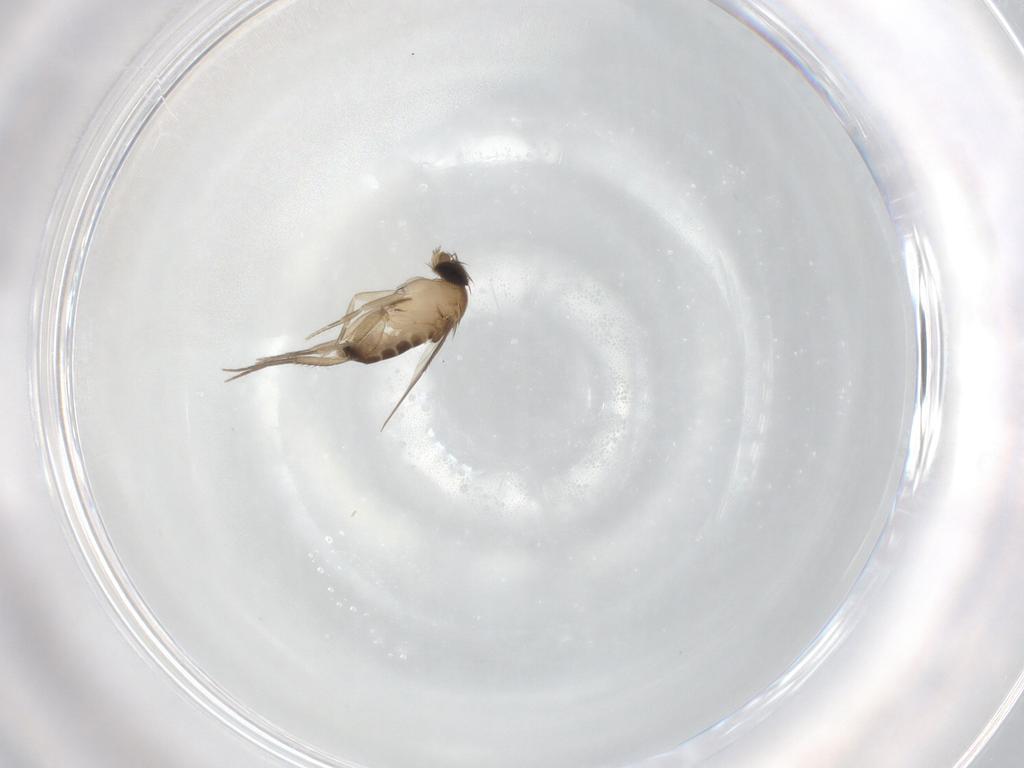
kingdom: Animalia
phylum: Arthropoda
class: Insecta
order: Diptera
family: Phoridae
